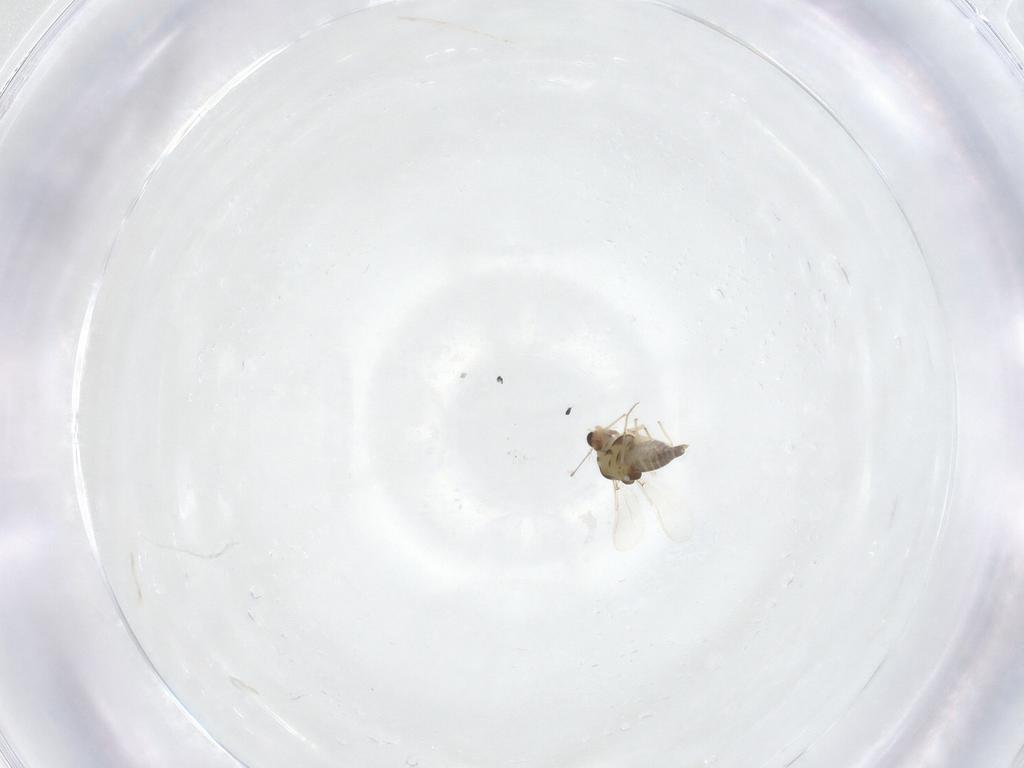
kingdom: Animalia
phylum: Arthropoda
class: Insecta
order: Diptera
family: Chironomidae
